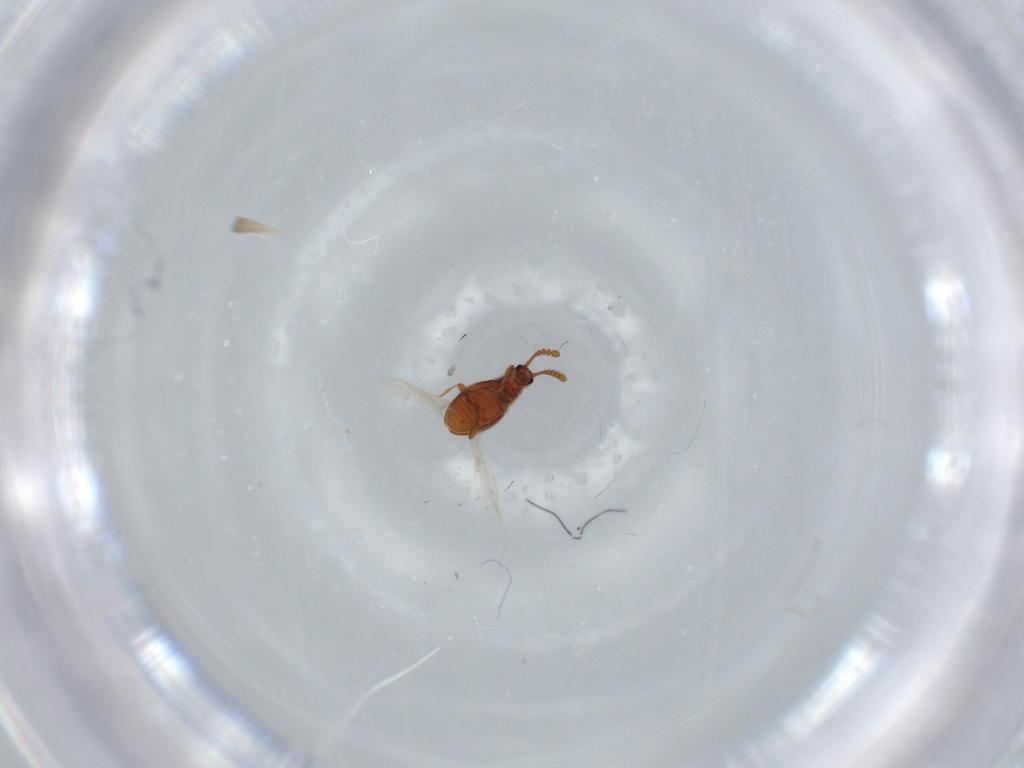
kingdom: Animalia
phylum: Arthropoda
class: Insecta
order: Coleoptera
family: Staphylinidae
